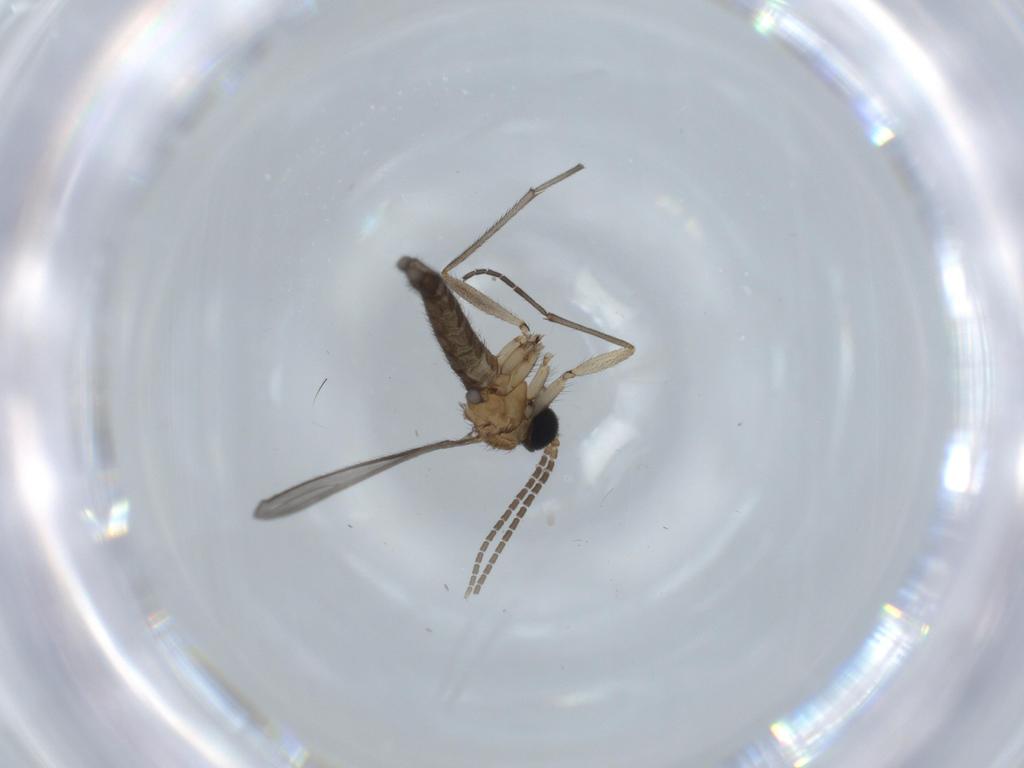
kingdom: Animalia
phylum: Arthropoda
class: Insecta
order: Diptera
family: Sciaridae
